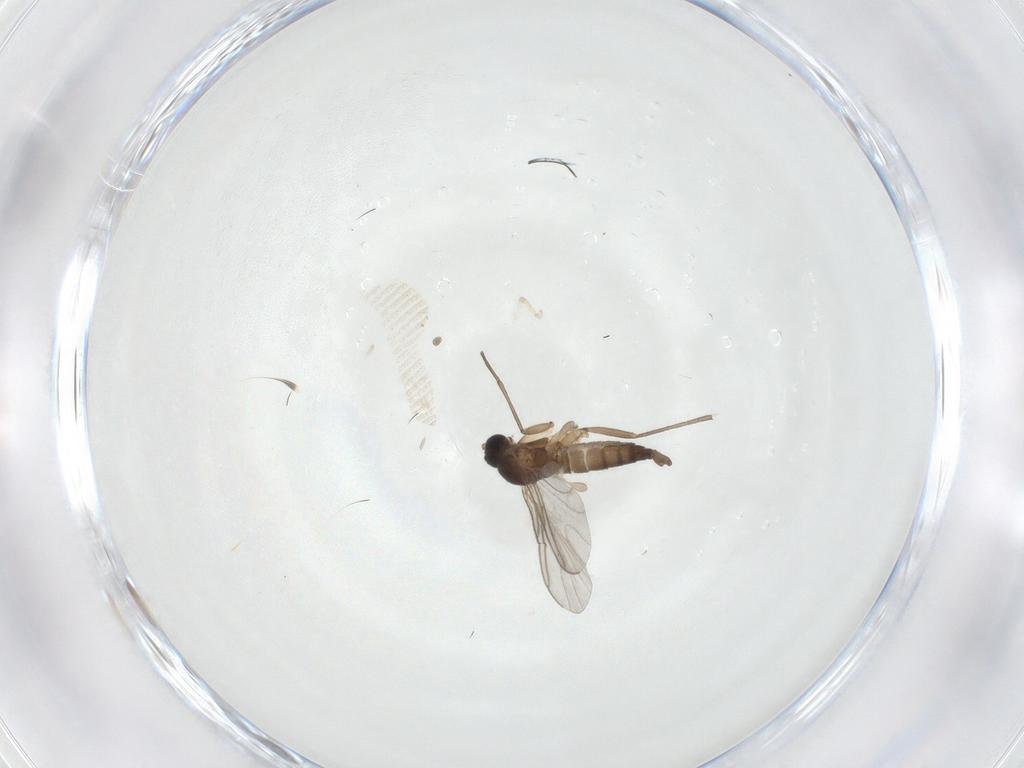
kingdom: Animalia
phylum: Arthropoda
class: Insecta
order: Diptera
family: Sciaridae
